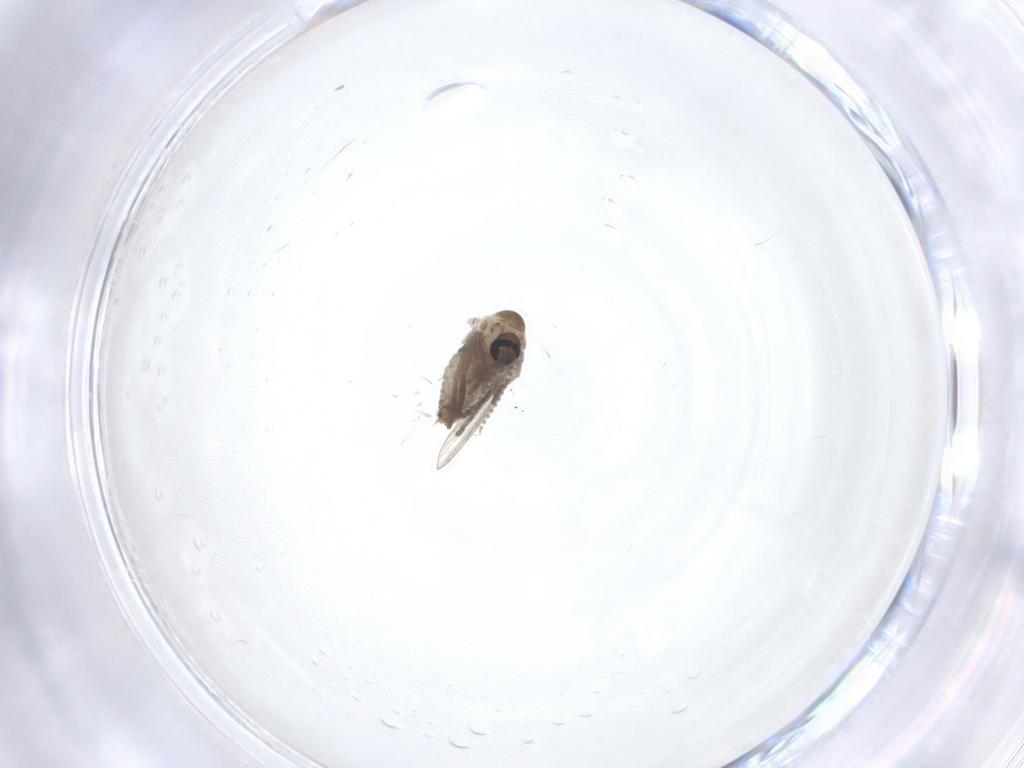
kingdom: Animalia
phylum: Arthropoda
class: Insecta
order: Diptera
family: Psychodidae
